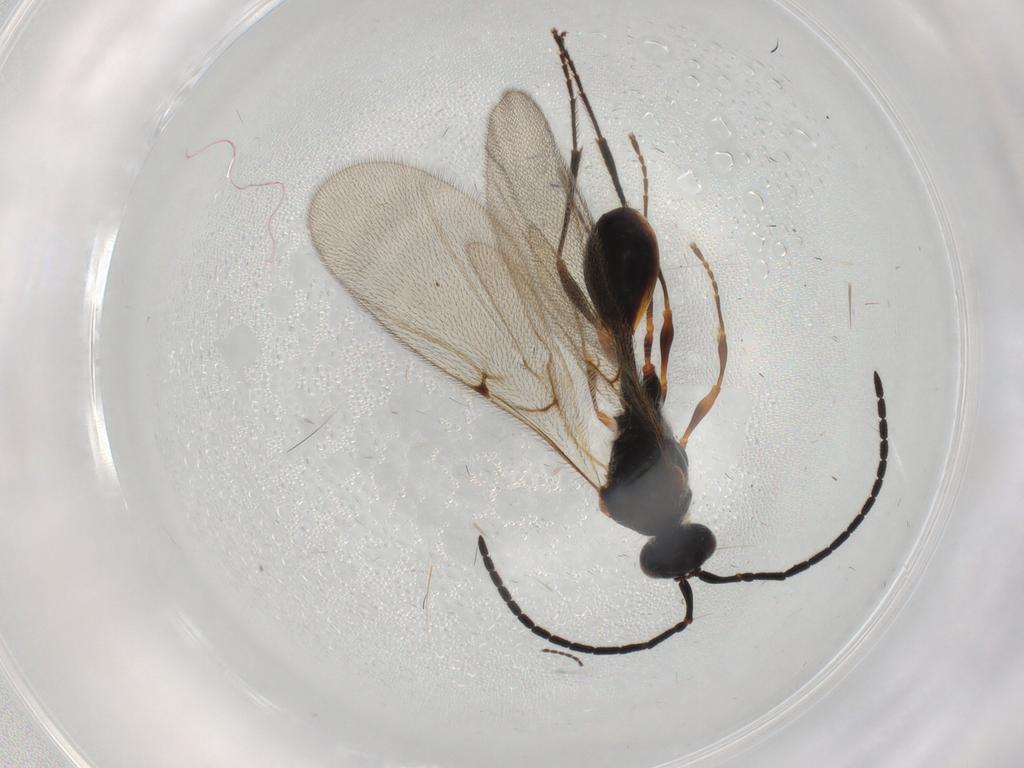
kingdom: Animalia
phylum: Arthropoda
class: Insecta
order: Hymenoptera
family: Diapriidae
